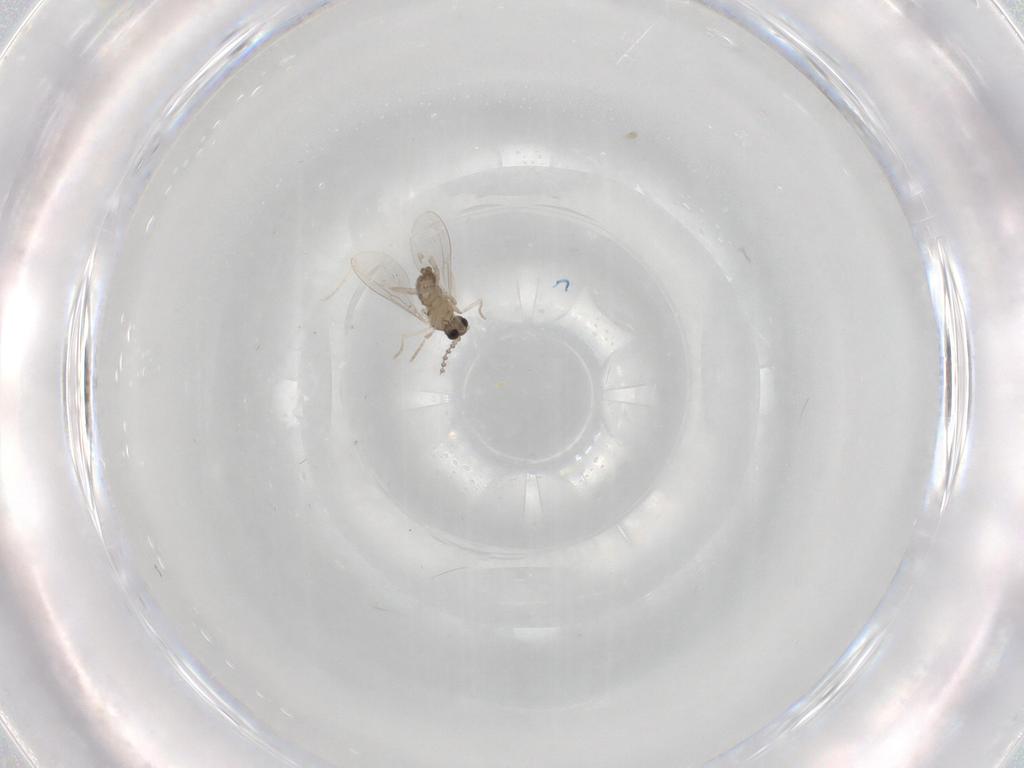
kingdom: Animalia
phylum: Arthropoda
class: Insecta
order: Diptera
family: Cecidomyiidae
